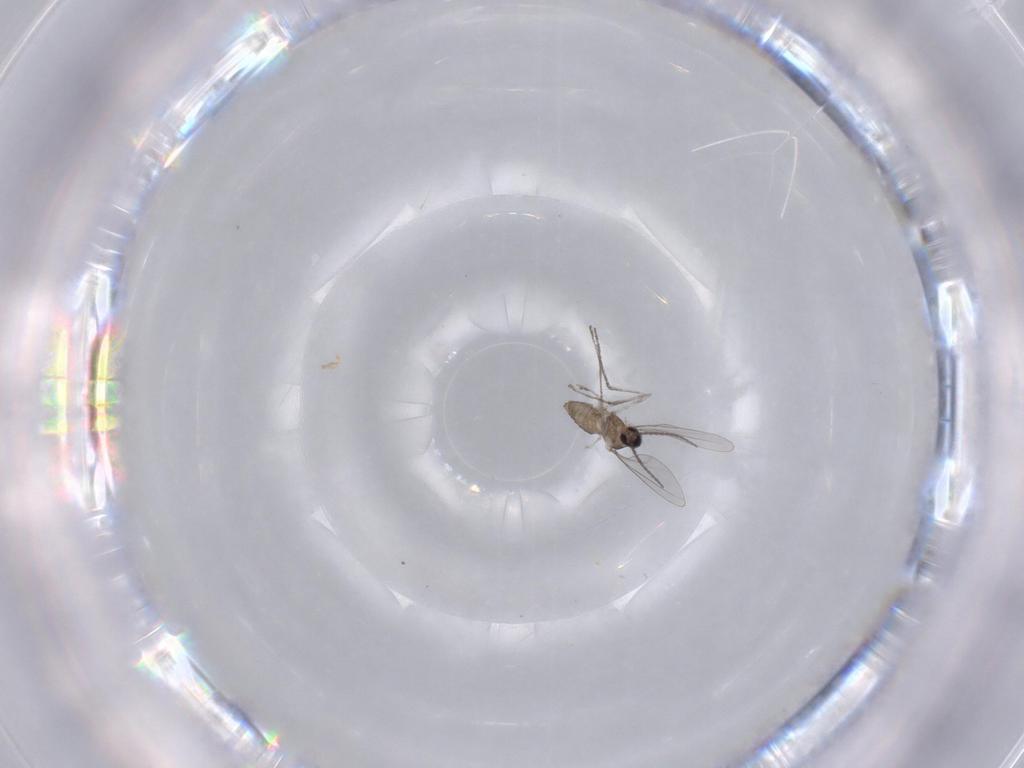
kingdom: Animalia
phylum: Arthropoda
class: Insecta
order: Diptera
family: Cecidomyiidae
